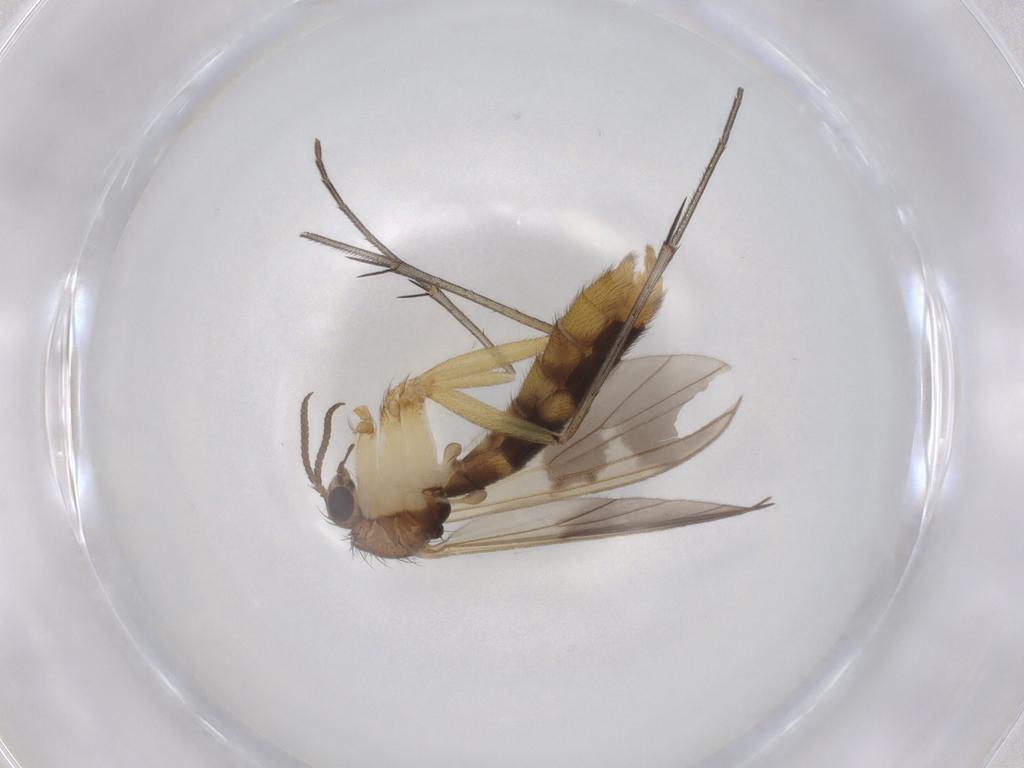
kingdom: Animalia
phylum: Arthropoda
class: Insecta
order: Diptera
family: Mycetophilidae
